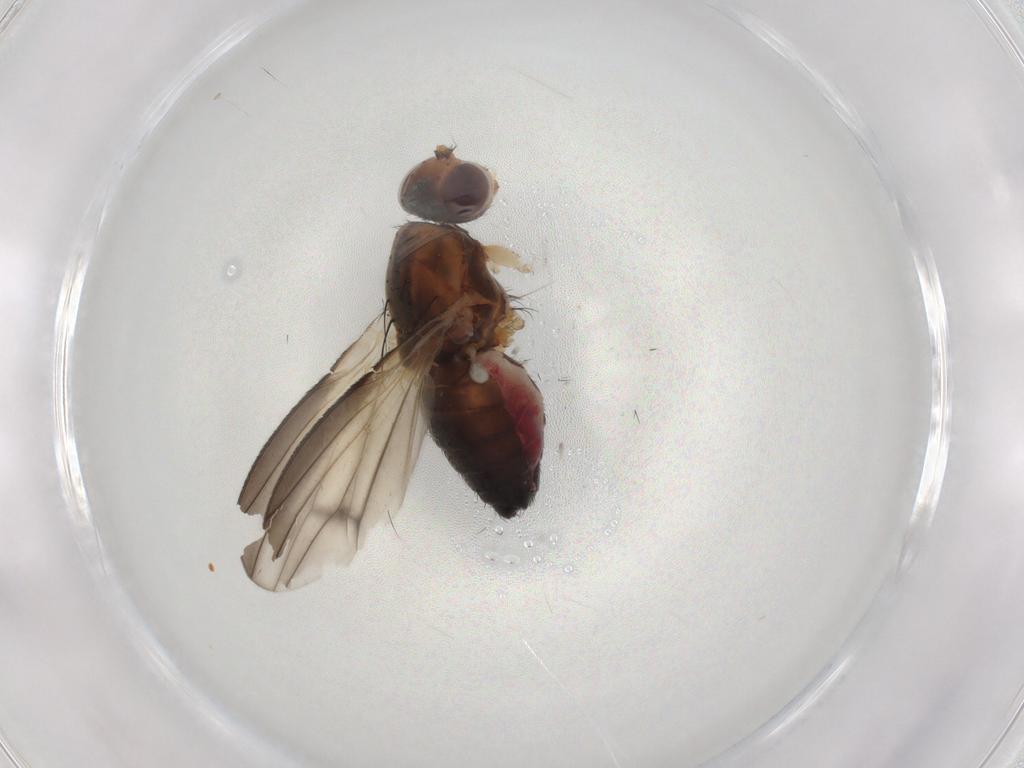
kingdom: Animalia
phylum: Arthropoda
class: Insecta
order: Diptera
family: Heleomyzidae
